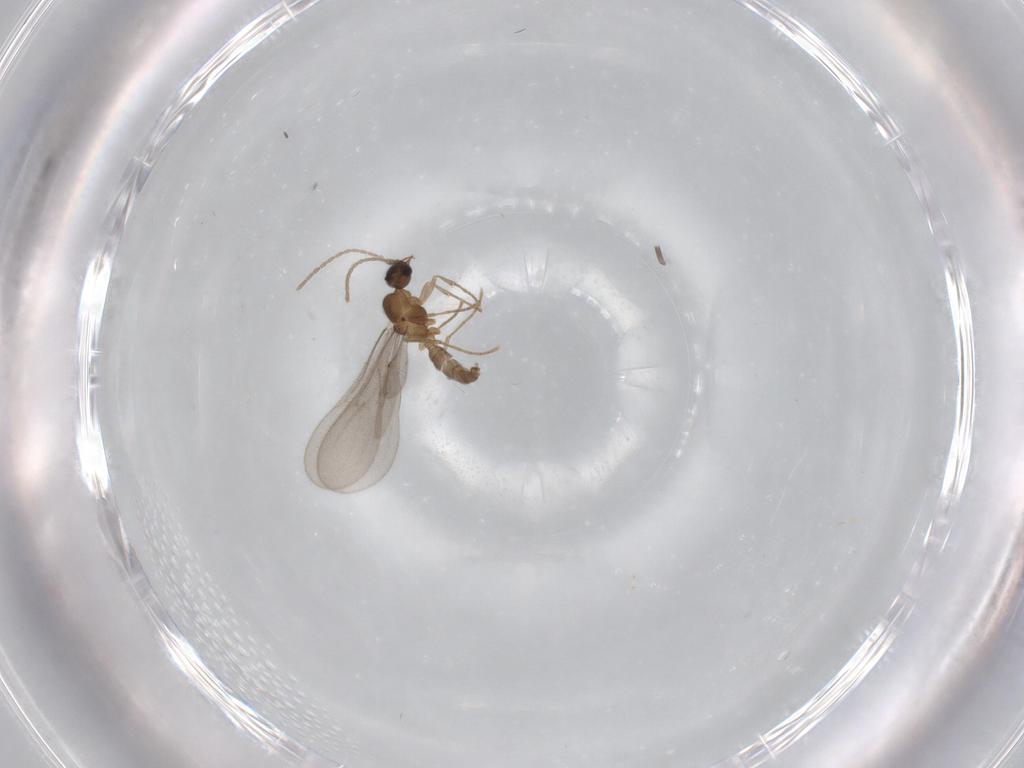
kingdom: Animalia
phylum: Arthropoda
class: Insecta
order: Hymenoptera
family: Formicidae
